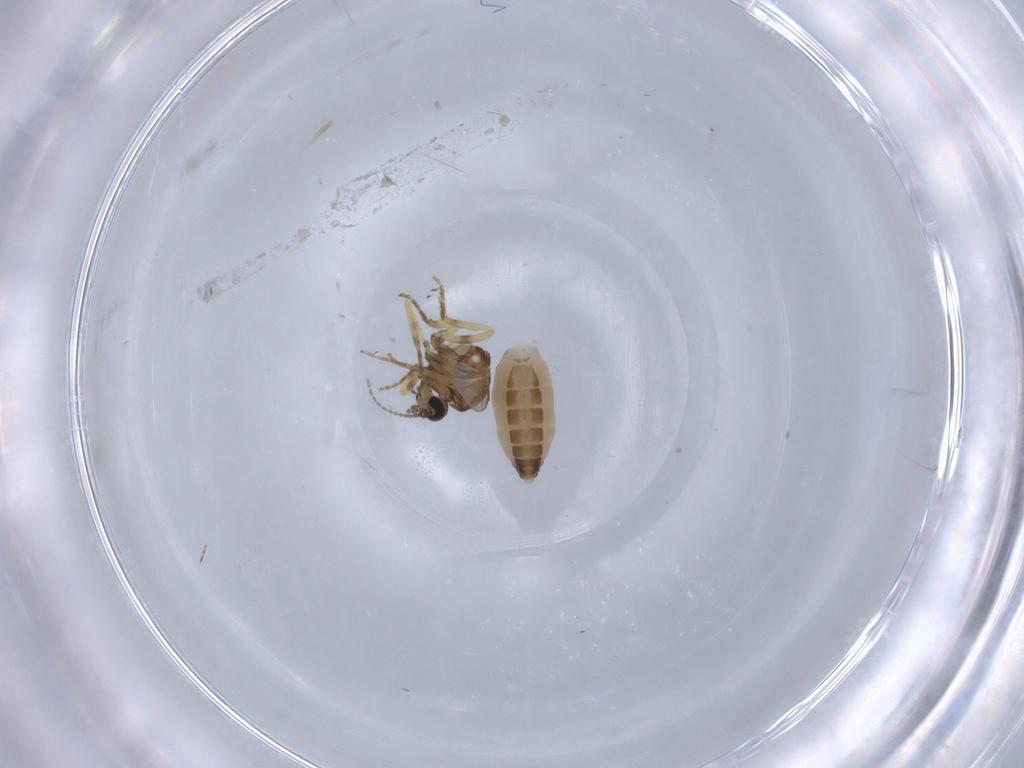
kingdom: Animalia
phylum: Arthropoda
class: Insecta
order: Diptera
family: Ceratopogonidae
